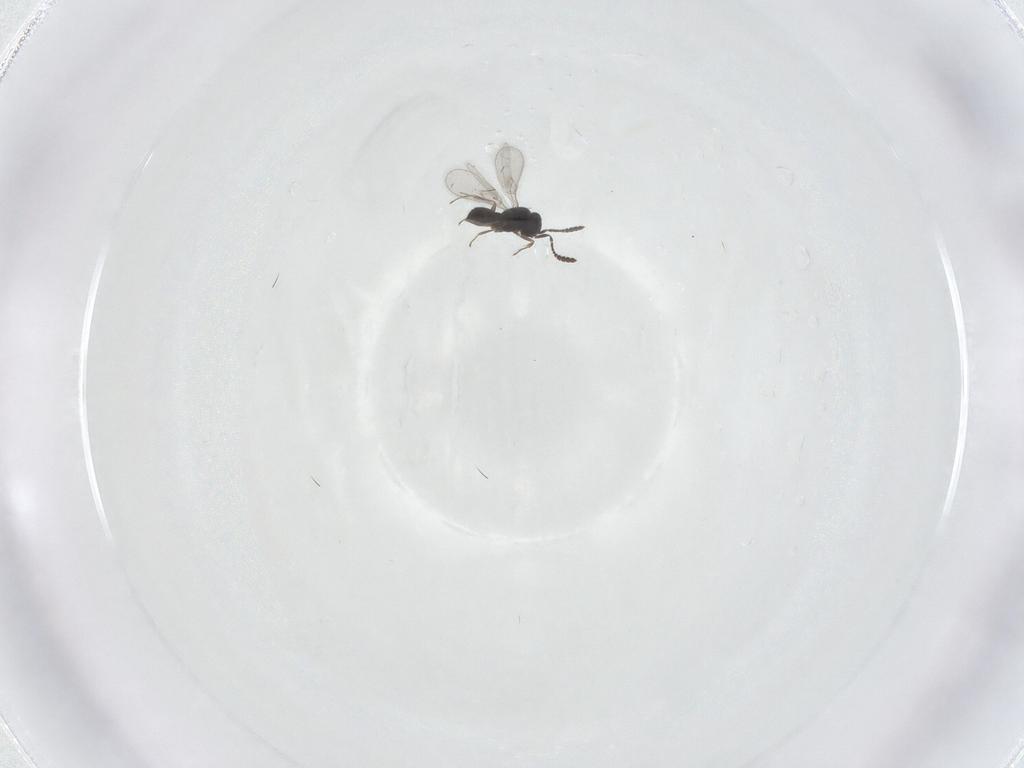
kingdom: Animalia
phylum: Arthropoda
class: Insecta
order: Hymenoptera
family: Scelionidae
